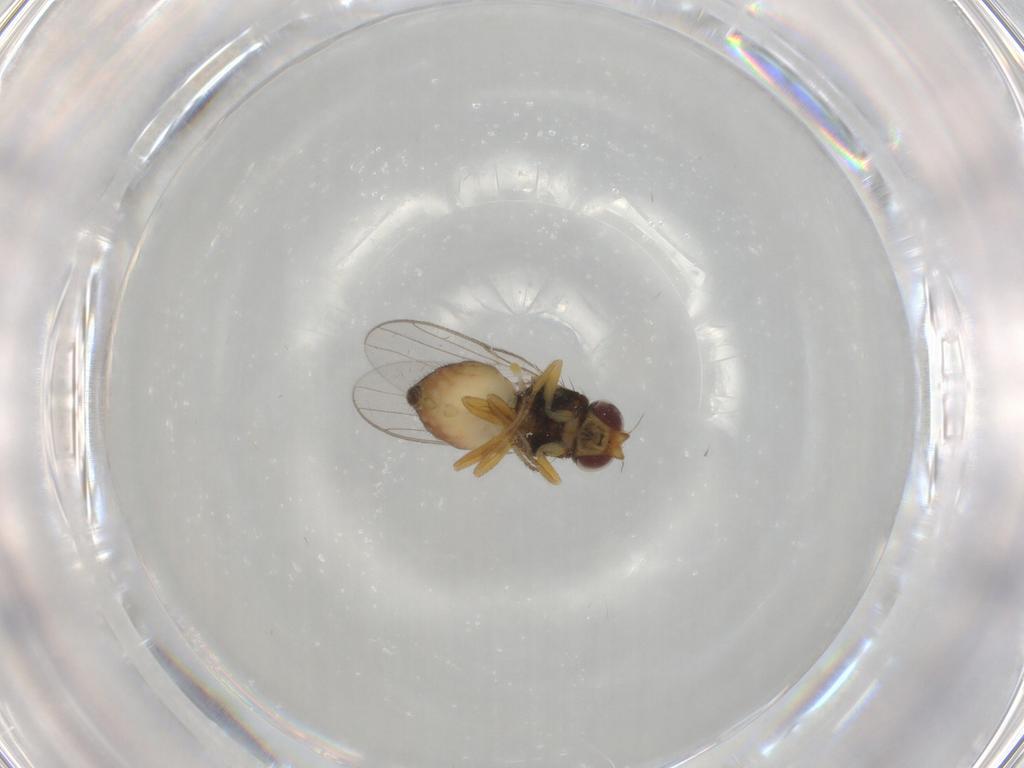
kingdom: Animalia
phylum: Arthropoda
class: Insecta
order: Diptera
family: Chloropidae
